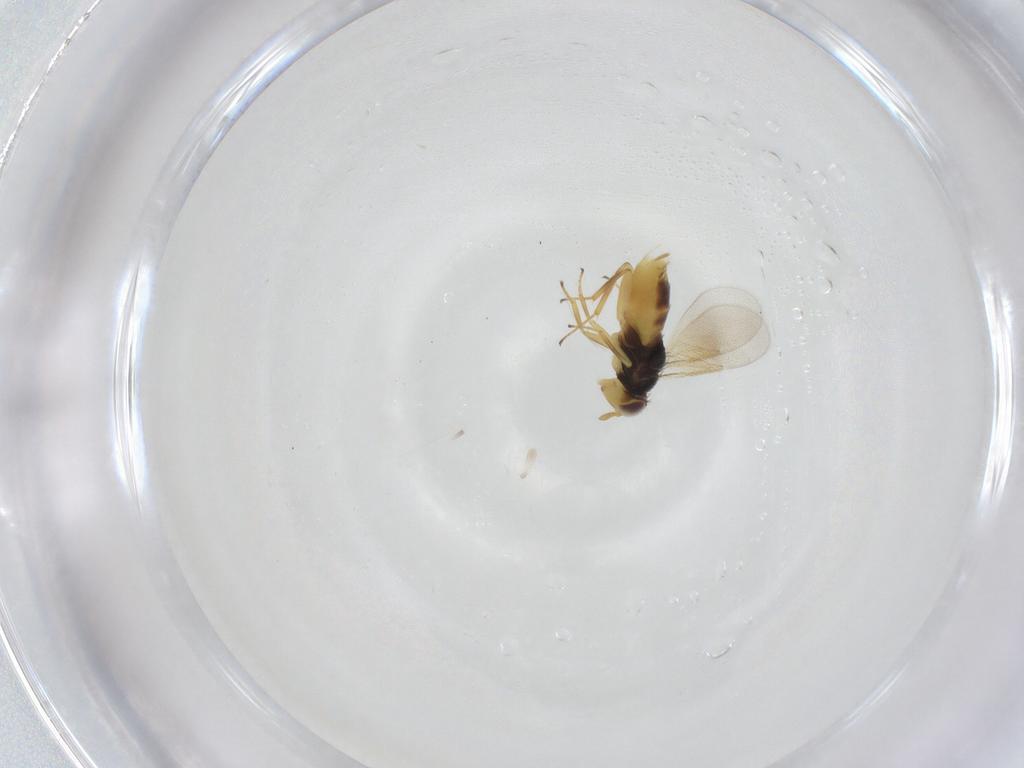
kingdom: Animalia
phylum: Arthropoda
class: Insecta
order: Hymenoptera
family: Aphelinidae
